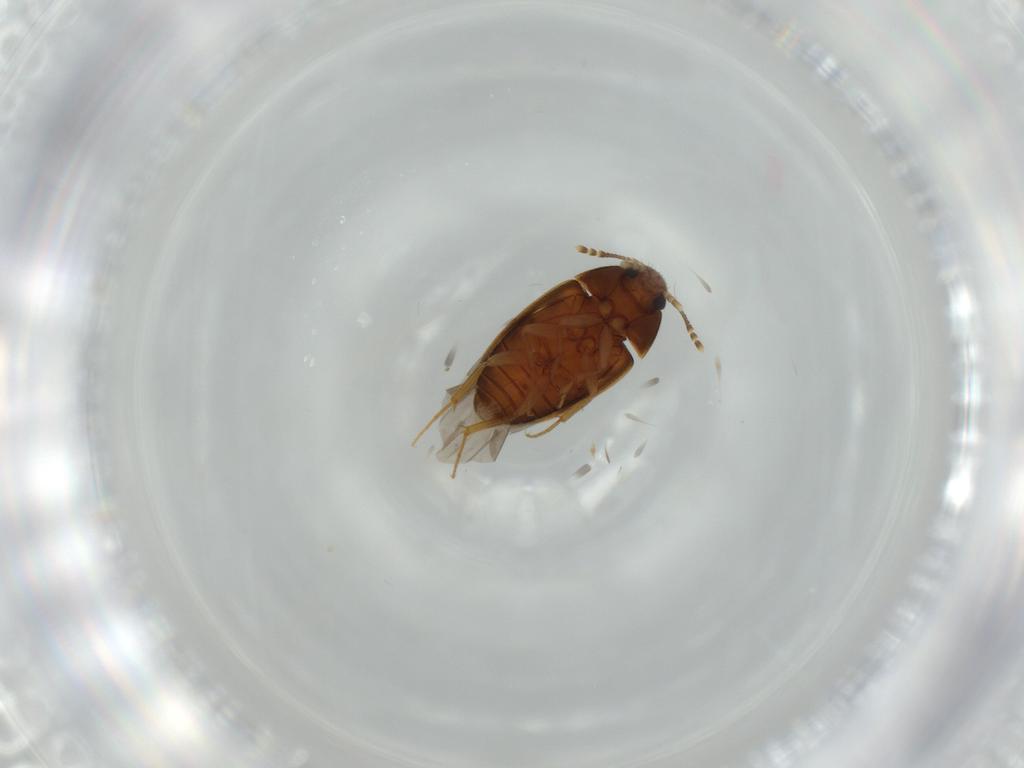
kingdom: Animalia
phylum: Arthropoda
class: Insecta
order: Coleoptera
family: Mycetophagidae
